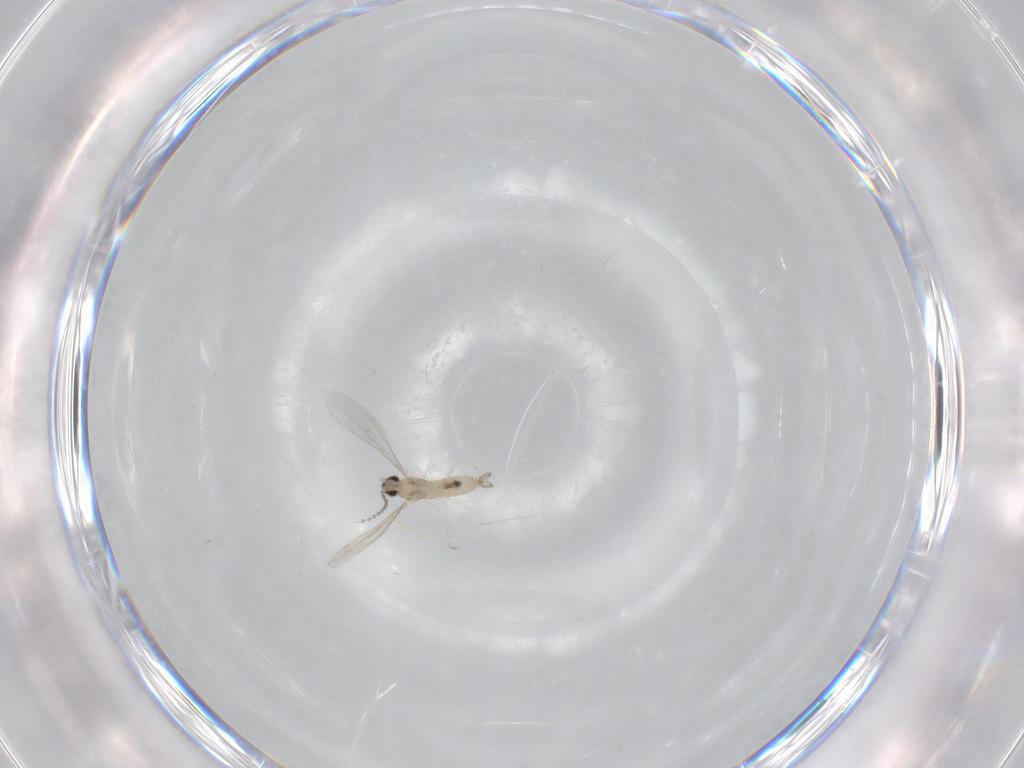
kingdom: Animalia
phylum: Arthropoda
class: Insecta
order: Diptera
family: Cecidomyiidae
